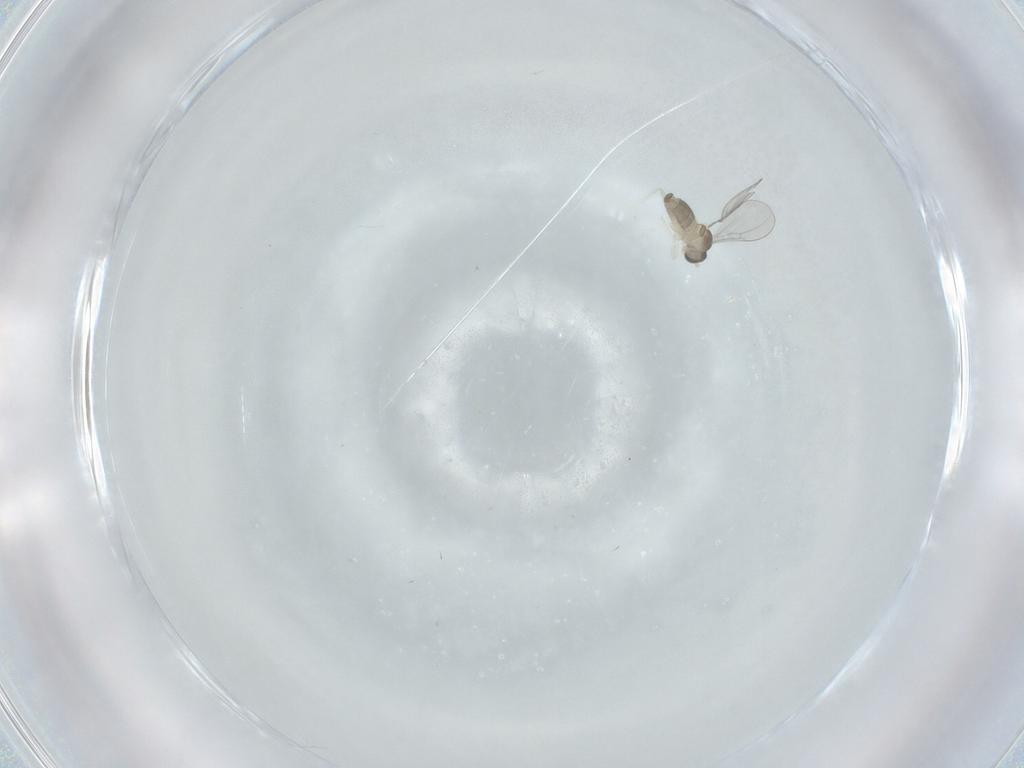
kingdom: Animalia
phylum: Arthropoda
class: Insecta
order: Diptera
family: Cecidomyiidae
